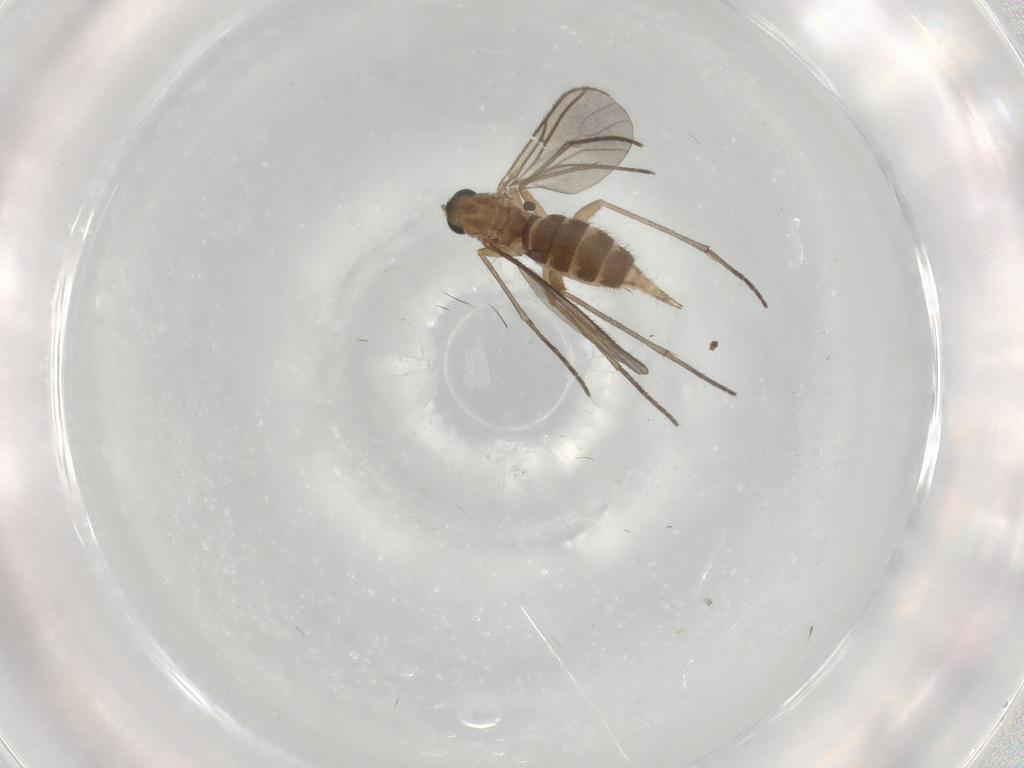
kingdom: Animalia
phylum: Arthropoda
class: Insecta
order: Diptera
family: Sciaridae
